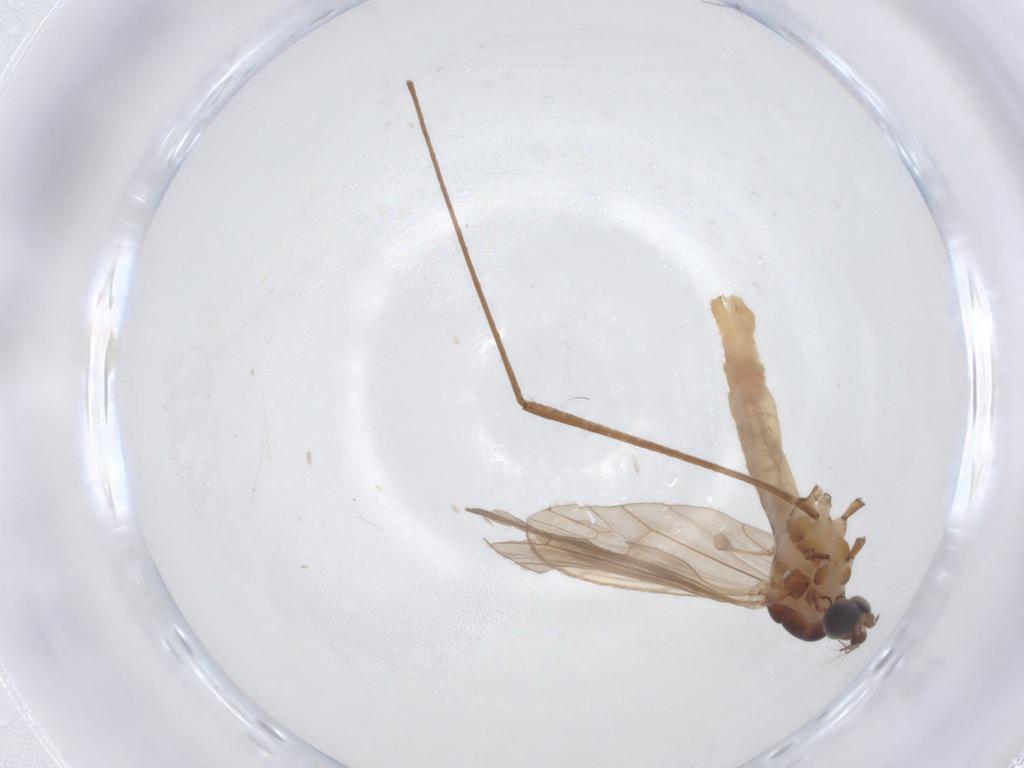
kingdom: Animalia
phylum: Arthropoda
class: Insecta
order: Diptera
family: Limoniidae
